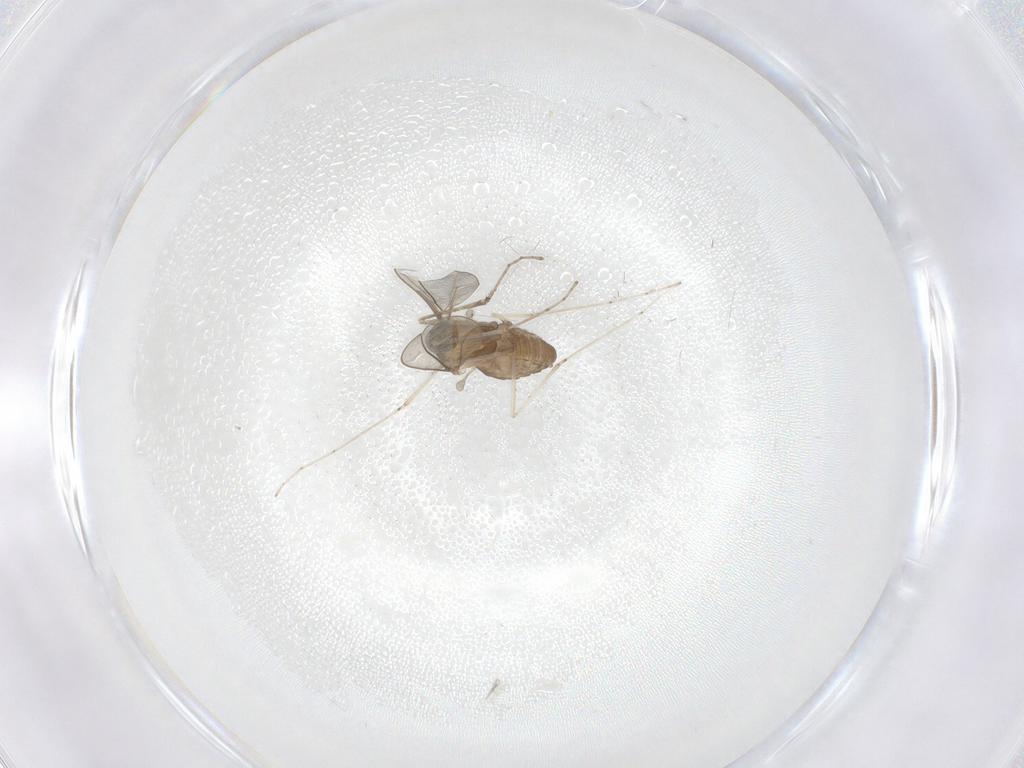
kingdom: Animalia
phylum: Arthropoda
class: Insecta
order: Diptera
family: Cecidomyiidae
